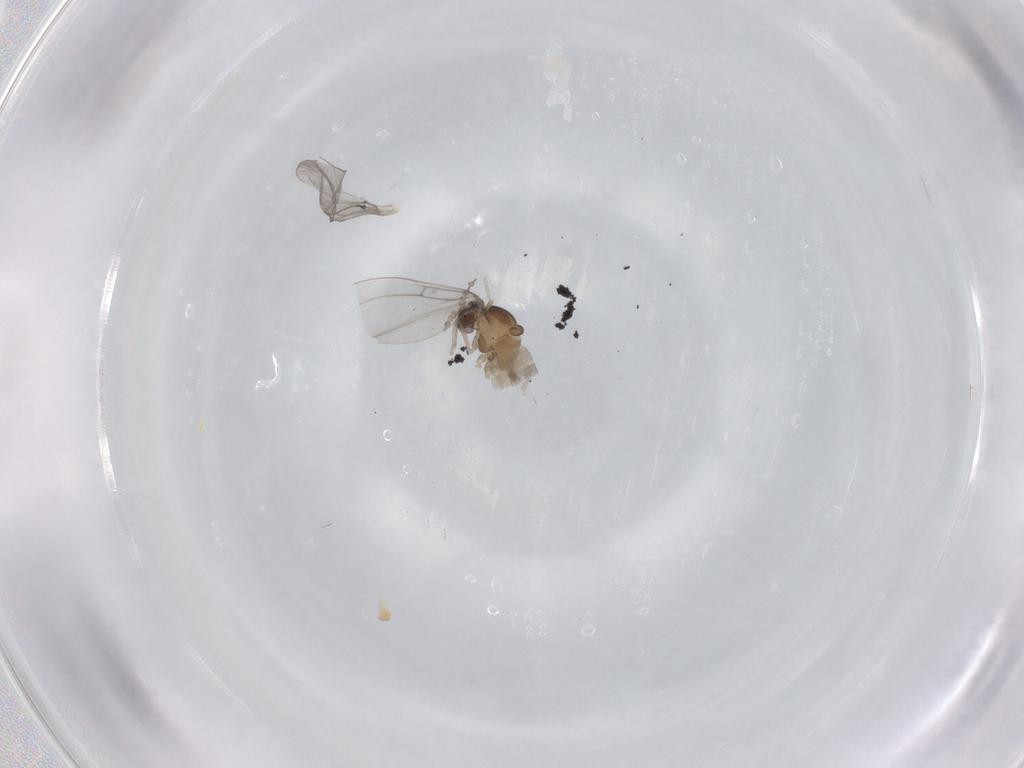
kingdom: Animalia
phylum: Arthropoda
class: Insecta
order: Diptera
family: Cecidomyiidae
